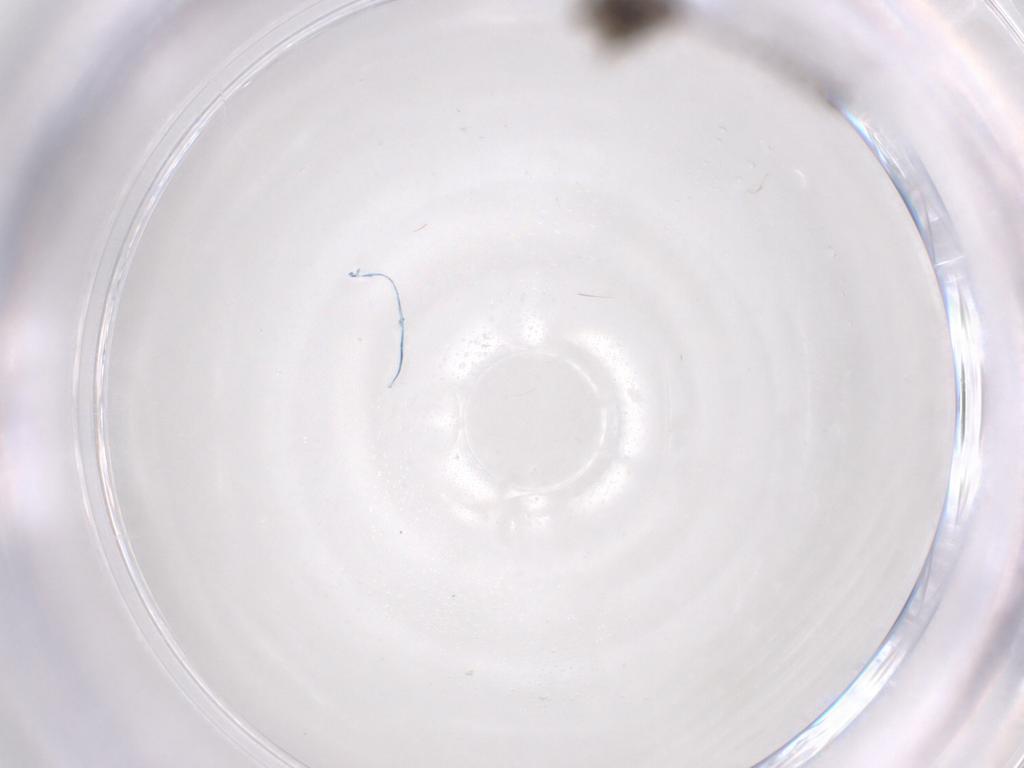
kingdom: Animalia
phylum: Arthropoda
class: Insecta
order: Diptera
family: Limoniidae
